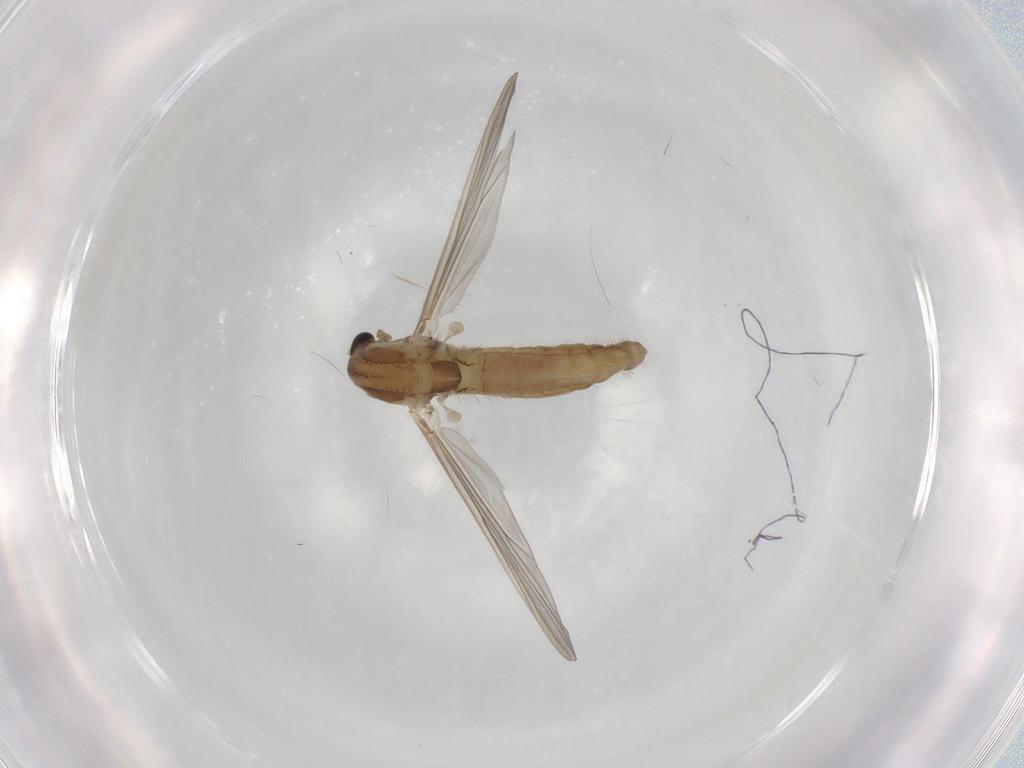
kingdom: Animalia
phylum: Arthropoda
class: Insecta
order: Diptera
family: Chironomidae
